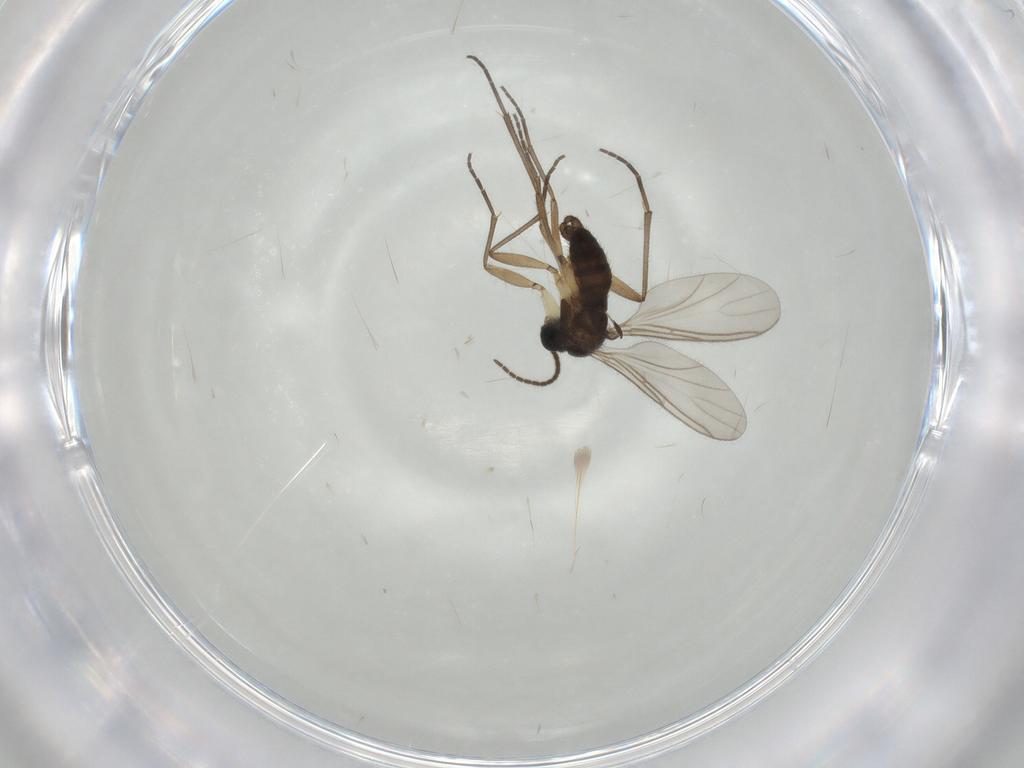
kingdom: Animalia
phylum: Arthropoda
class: Insecta
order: Diptera
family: Sciaridae
